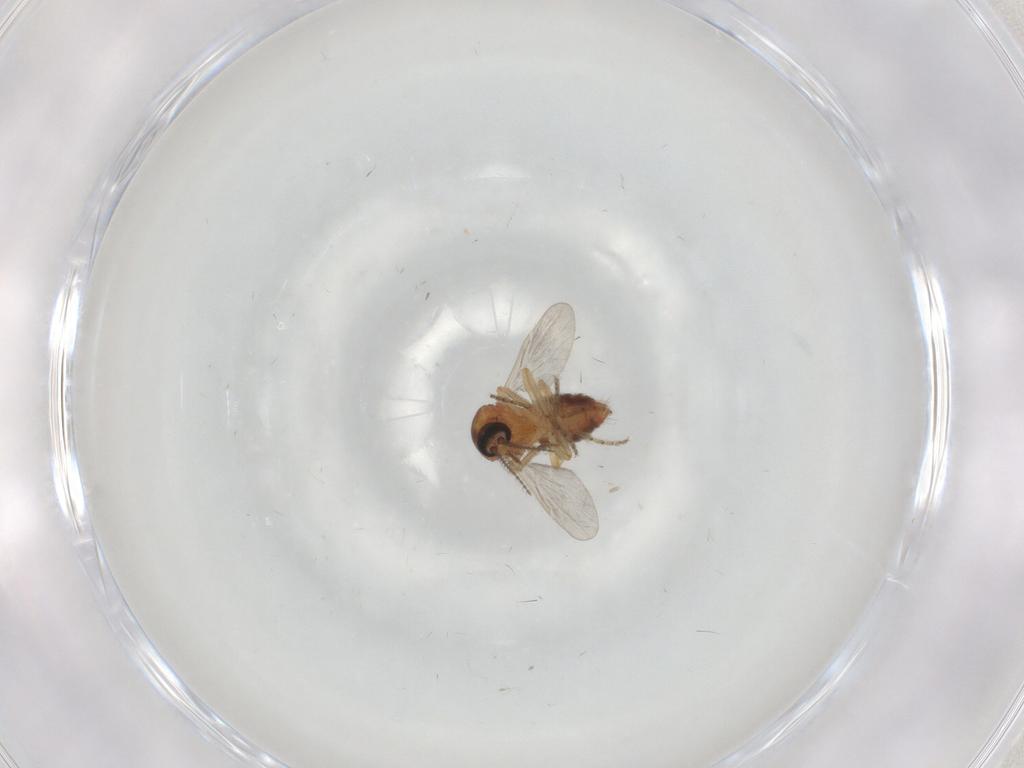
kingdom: Animalia
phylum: Arthropoda
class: Insecta
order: Diptera
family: Ceratopogonidae
